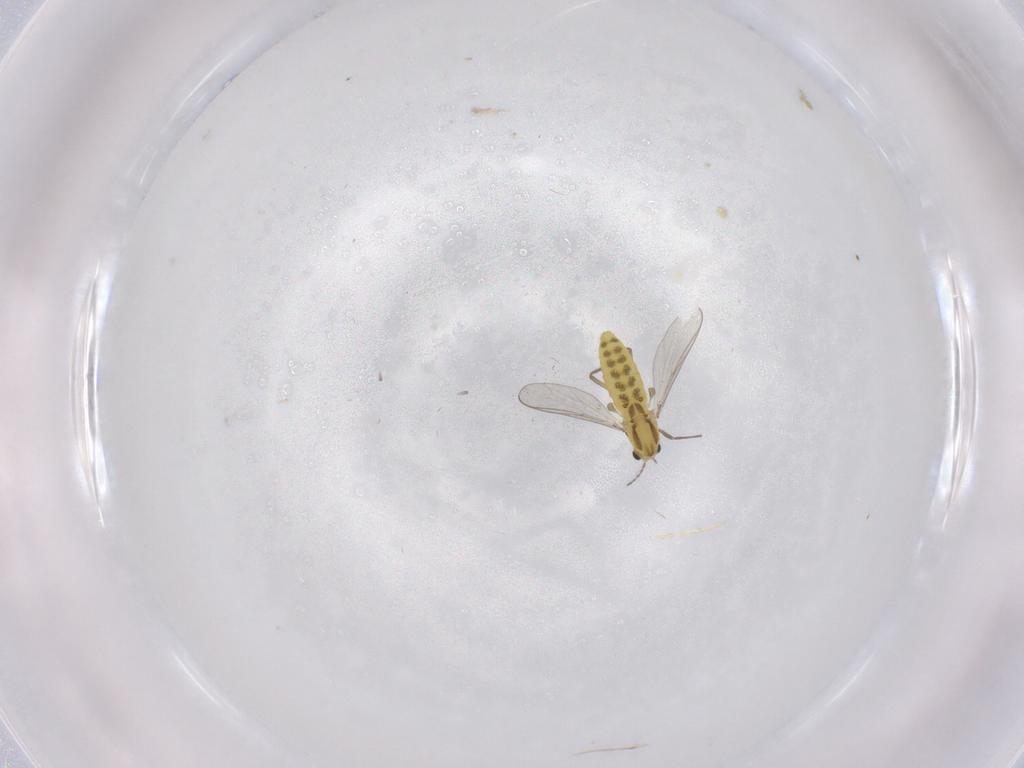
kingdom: Animalia
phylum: Arthropoda
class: Insecta
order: Diptera
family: Chironomidae
